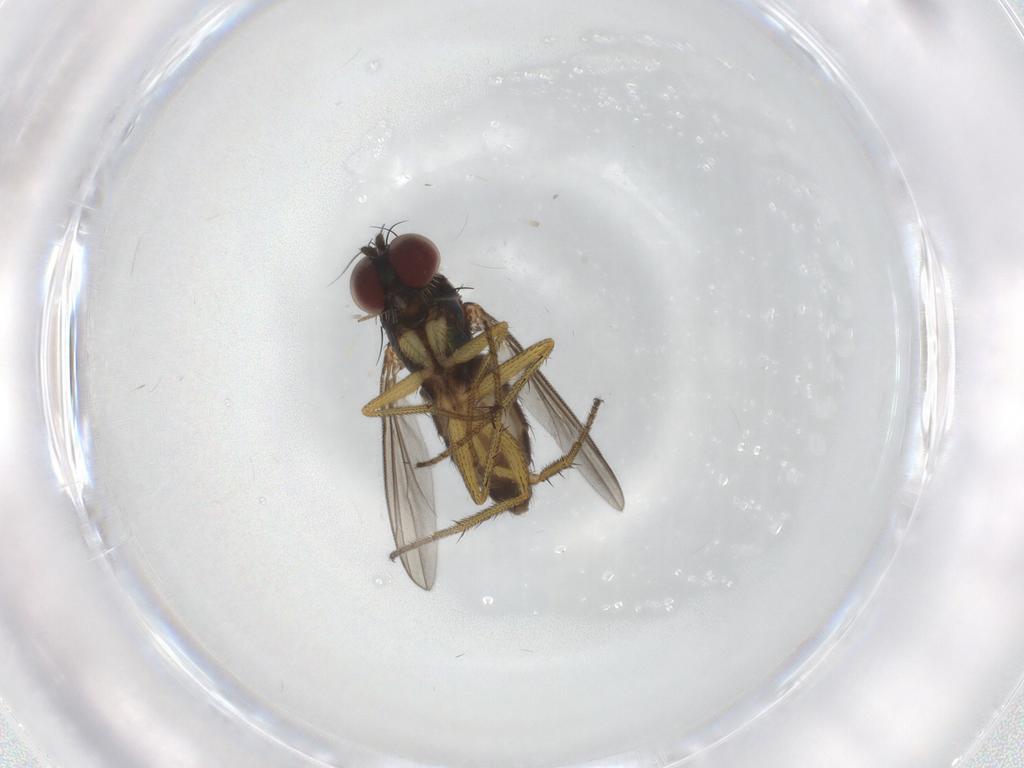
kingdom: Animalia
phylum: Arthropoda
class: Insecta
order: Diptera
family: Dolichopodidae
